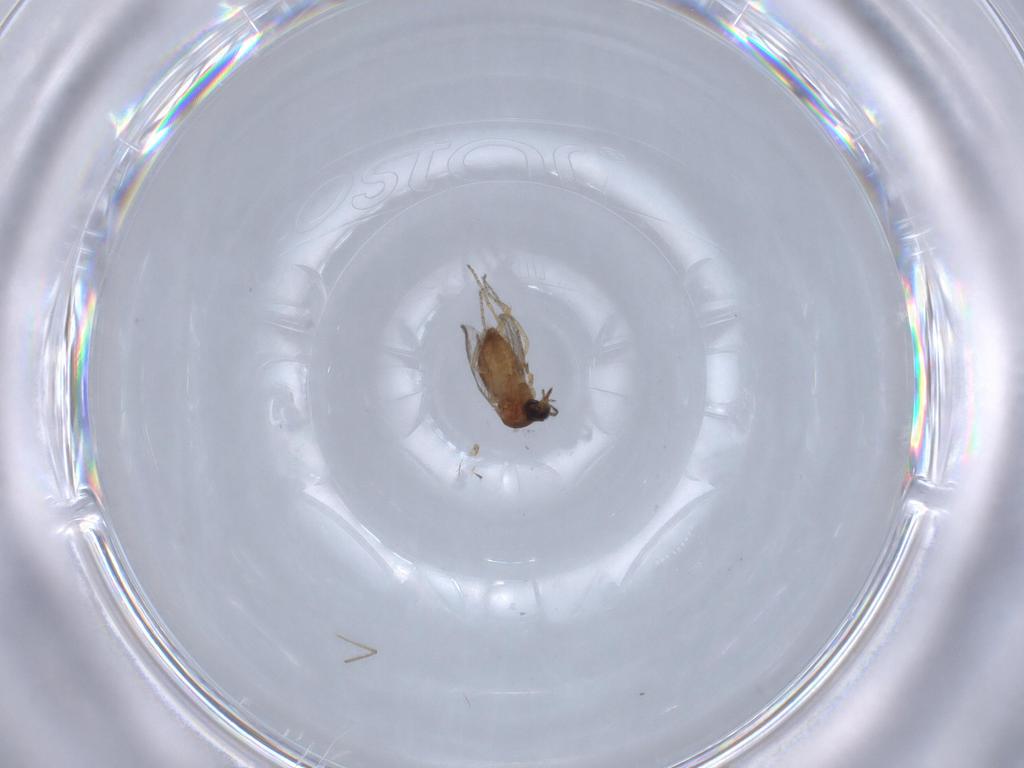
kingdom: Animalia
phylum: Arthropoda
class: Insecta
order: Diptera
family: Ceratopogonidae
